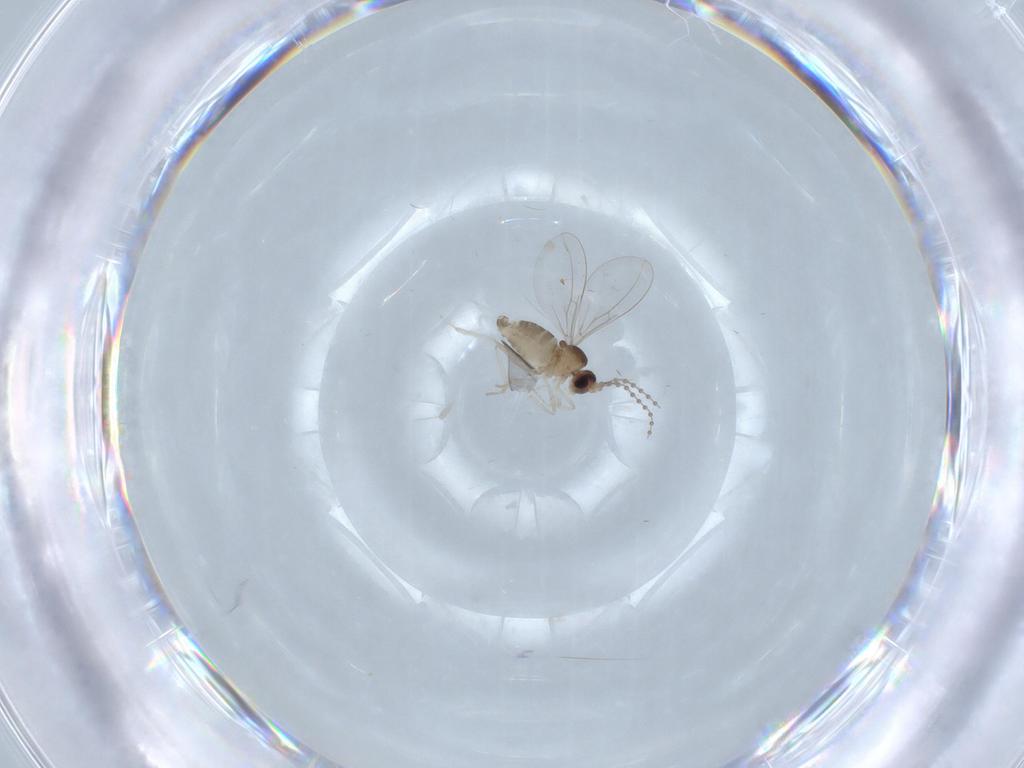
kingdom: Animalia
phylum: Arthropoda
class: Insecta
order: Diptera
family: Cecidomyiidae
